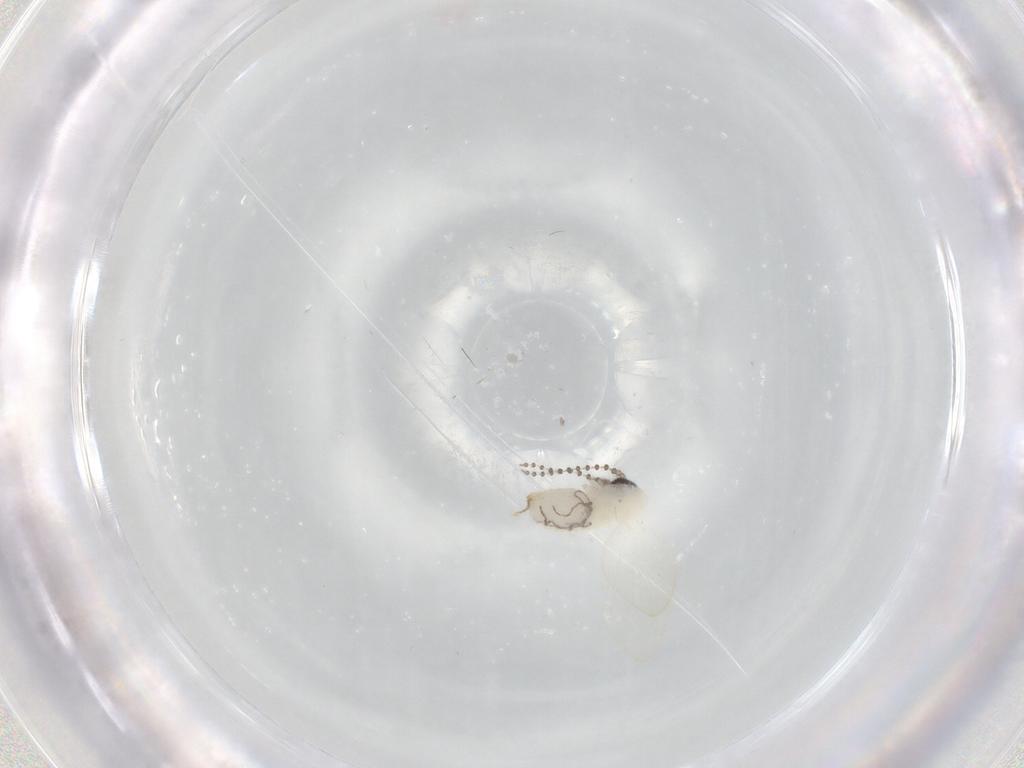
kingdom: Animalia
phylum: Arthropoda
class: Insecta
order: Diptera
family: Psychodidae
